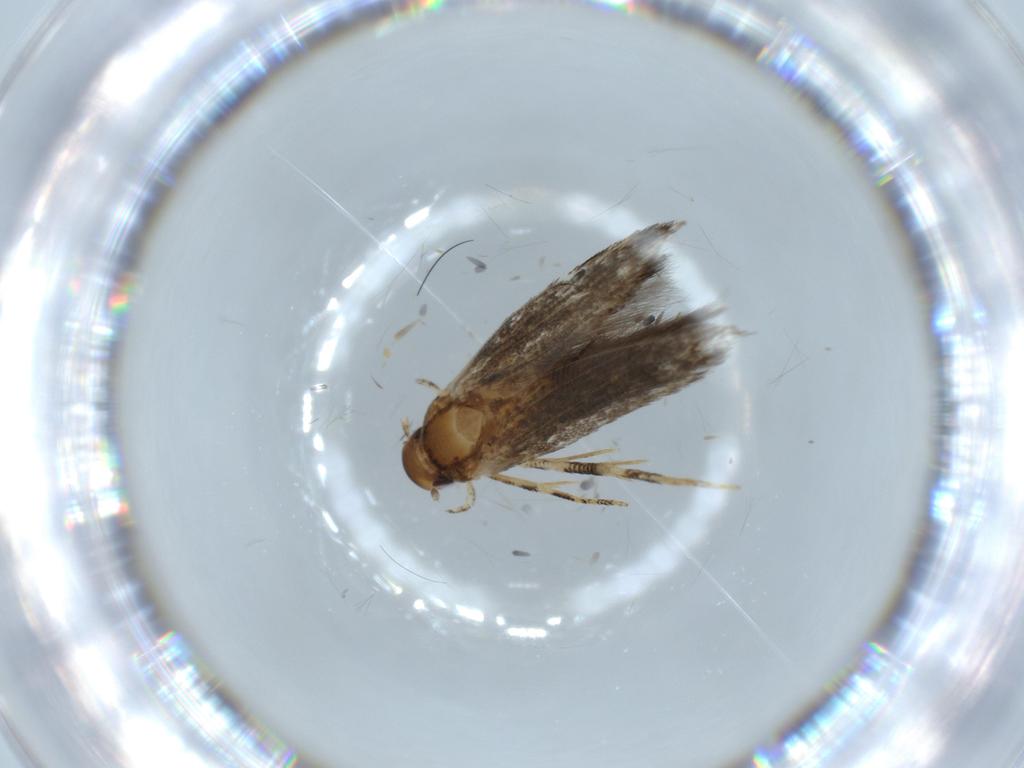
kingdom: Animalia
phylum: Arthropoda
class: Insecta
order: Lepidoptera
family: Momphidae
